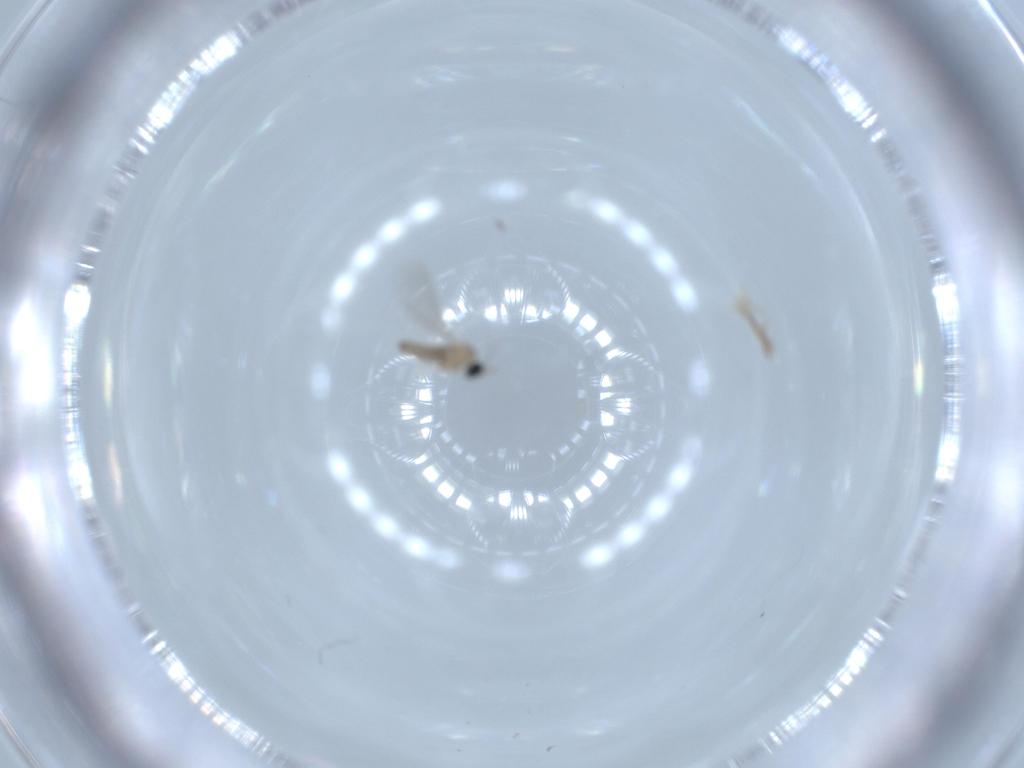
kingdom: Animalia
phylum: Arthropoda
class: Insecta
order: Diptera
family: Cecidomyiidae
